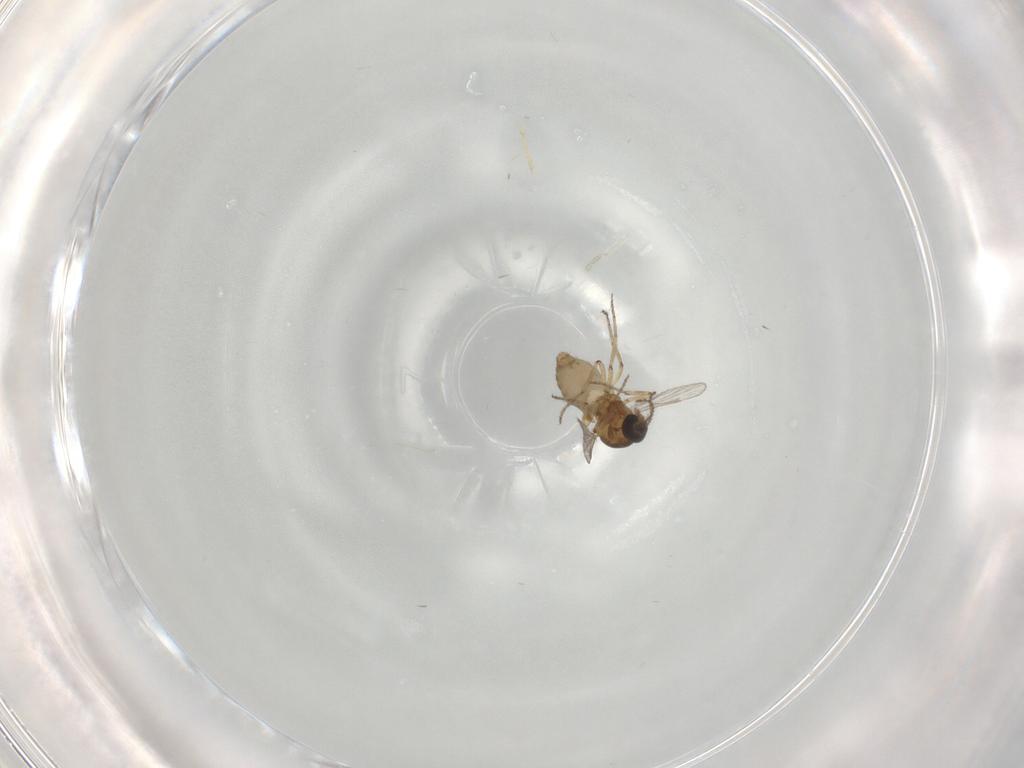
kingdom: Animalia
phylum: Arthropoda
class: Insecta
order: Diptera
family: Ceratopogonidae
